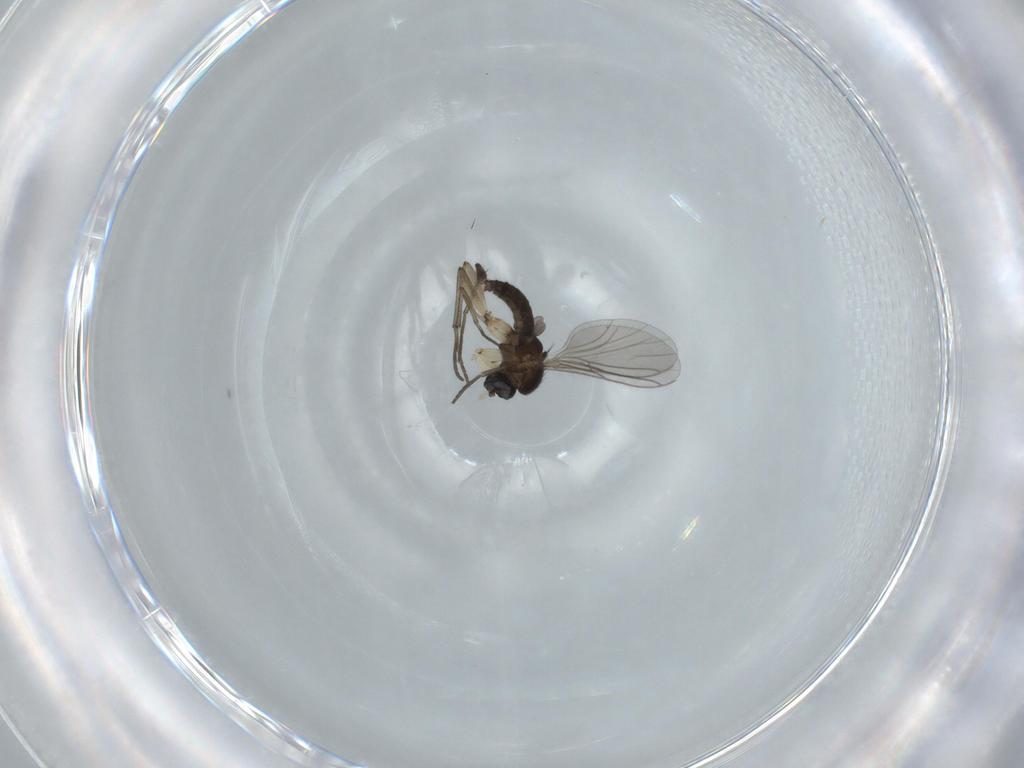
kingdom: Animalia
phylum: Arthropoda
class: Insecta
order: Diptera
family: Sciaridae
